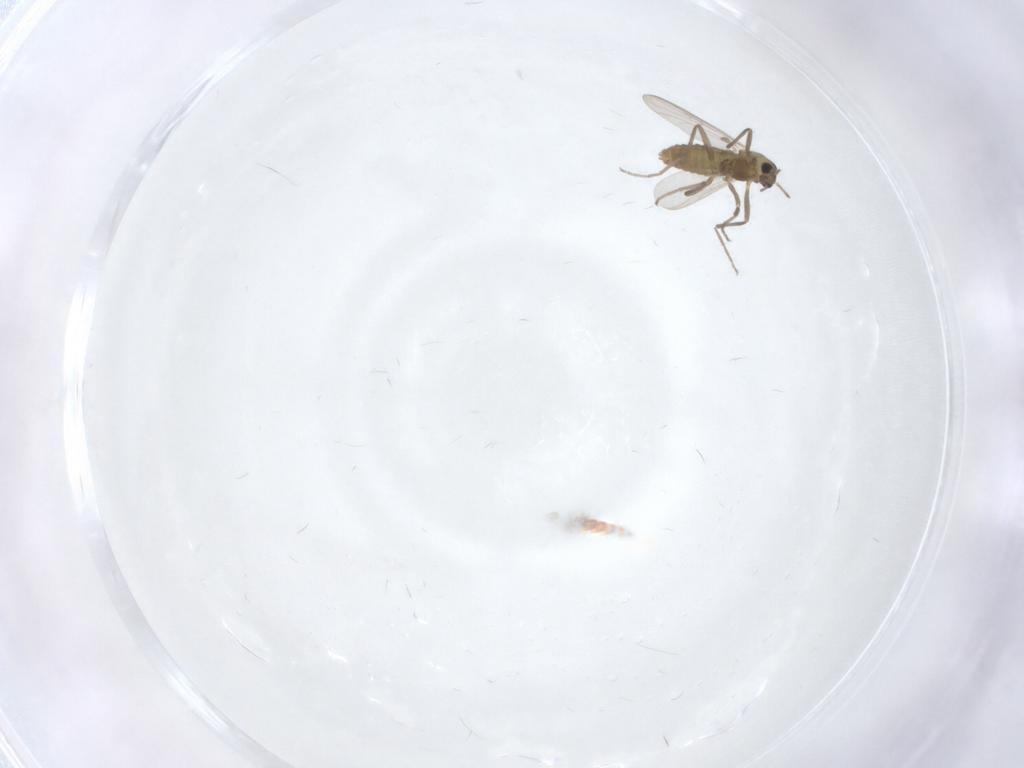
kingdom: Animalia
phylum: Arthropoda
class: Insecta
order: Diptera
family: Chironomidae
